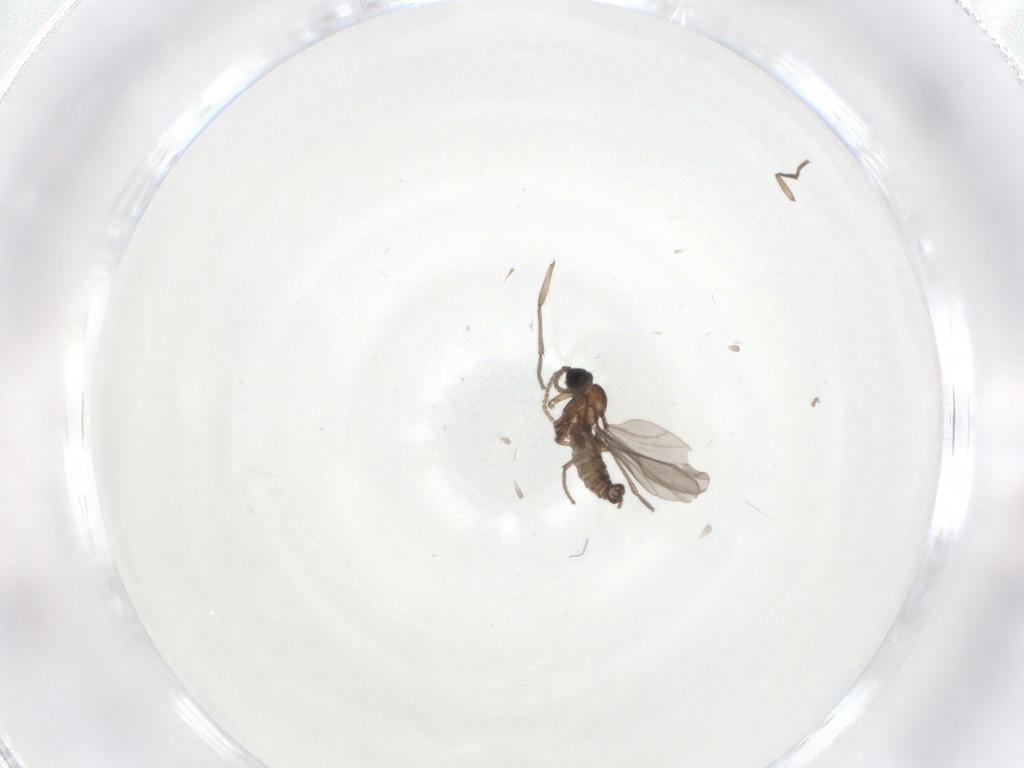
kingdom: Animalia
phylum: Arthropoda
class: Insecta
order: Diptera
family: Sciaridae
